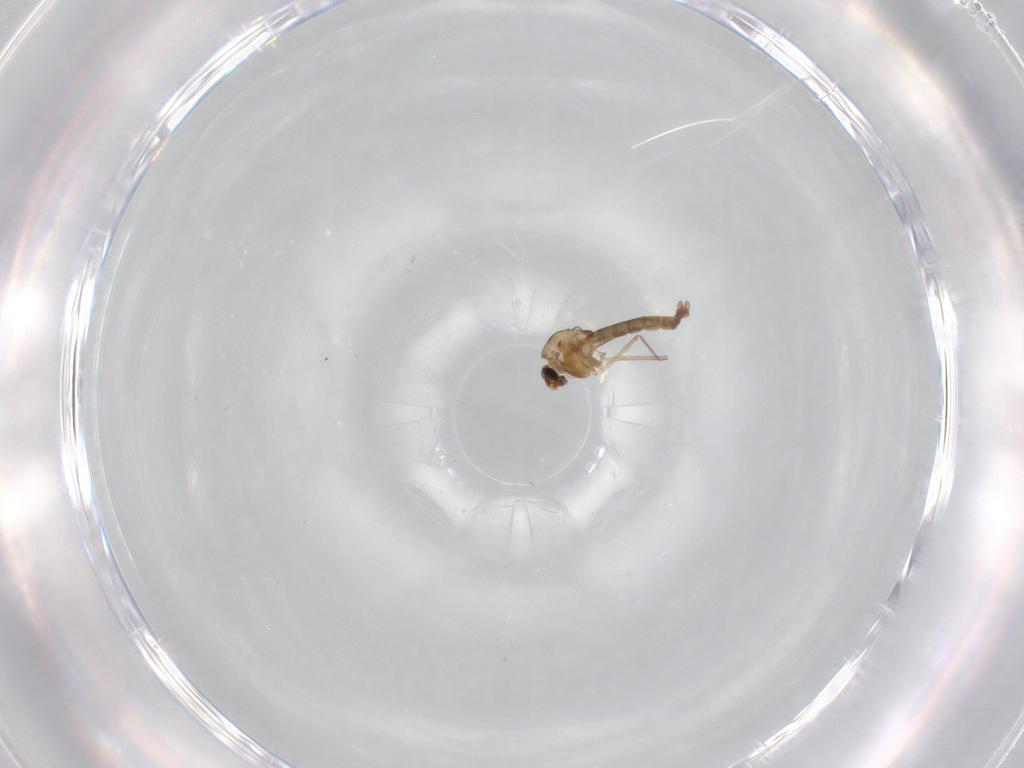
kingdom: Animalia
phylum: Arthropoda
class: Insecta
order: Diptera
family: Chironomidae
